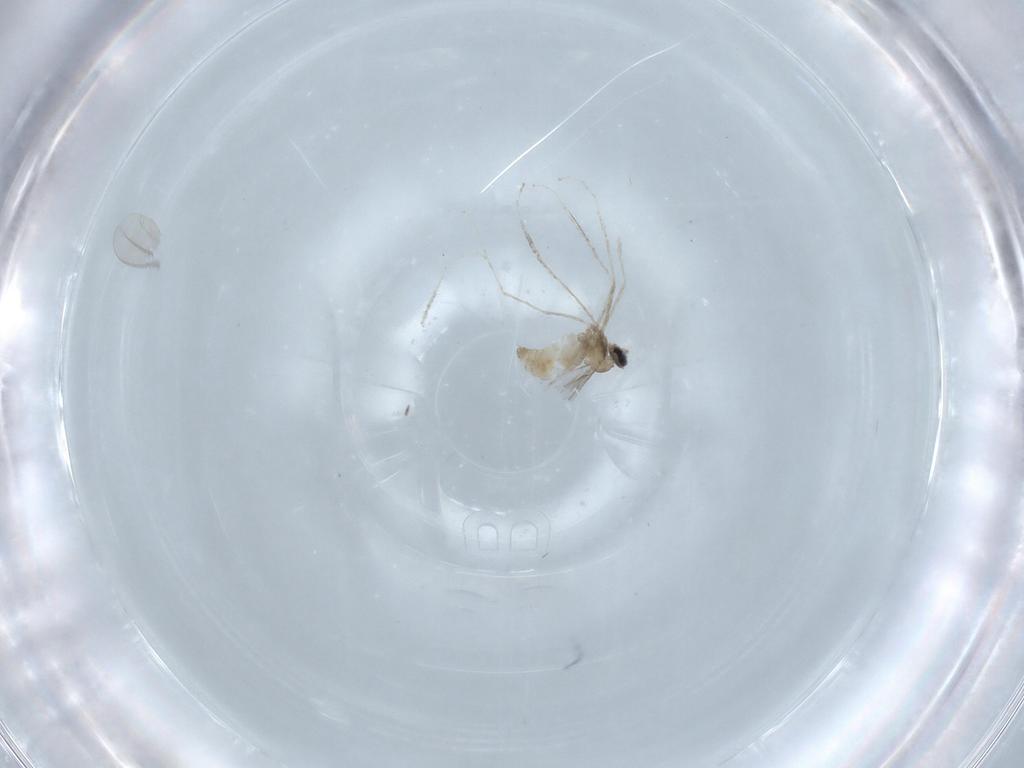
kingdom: Animalia
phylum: Arthropoda
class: Insecta
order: Diptera
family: Cecidomyiidae
